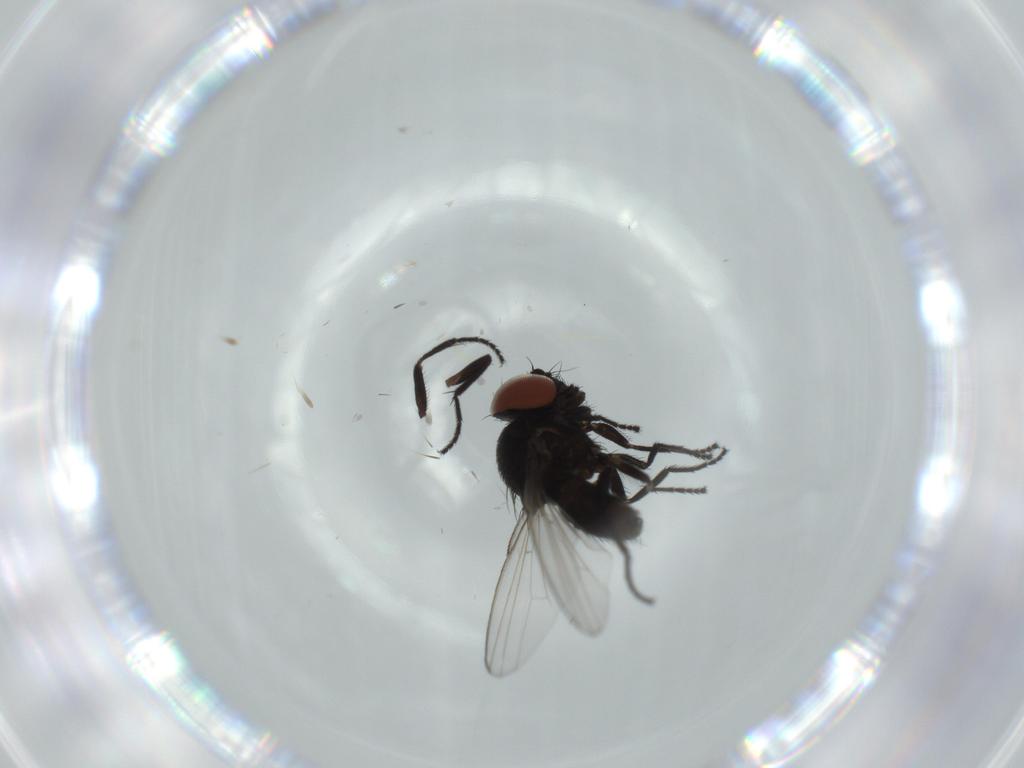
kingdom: Animalia
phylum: Arthropoda
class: Insecta
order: Diptera
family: Milichiidae
